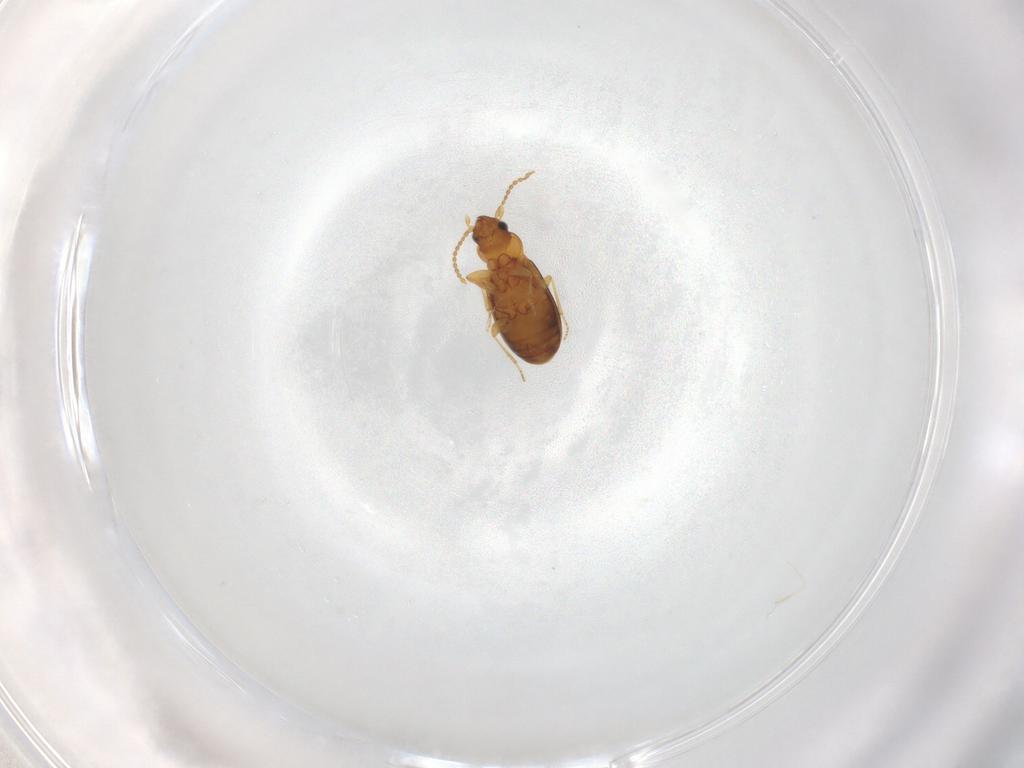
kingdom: Animalia
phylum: Arthropoda
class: Insecta
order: Coleoptera
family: Carabidae
